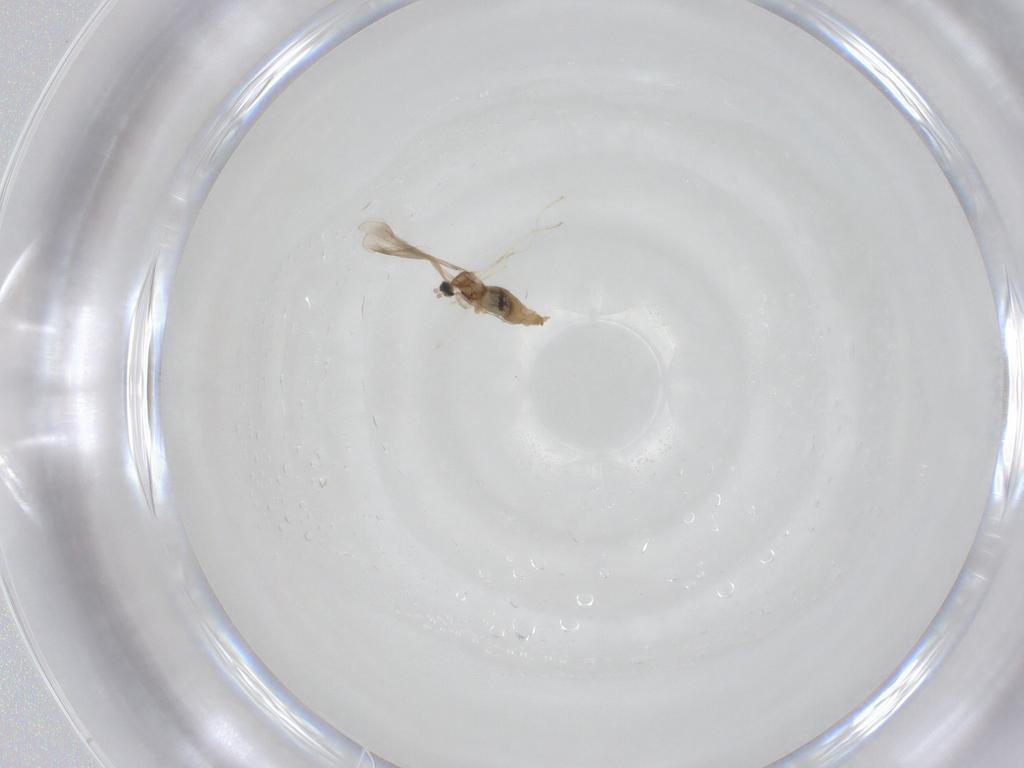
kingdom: Animalia
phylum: Arthropoda
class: Insecta
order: Diptera
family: Cecidomyiidae
